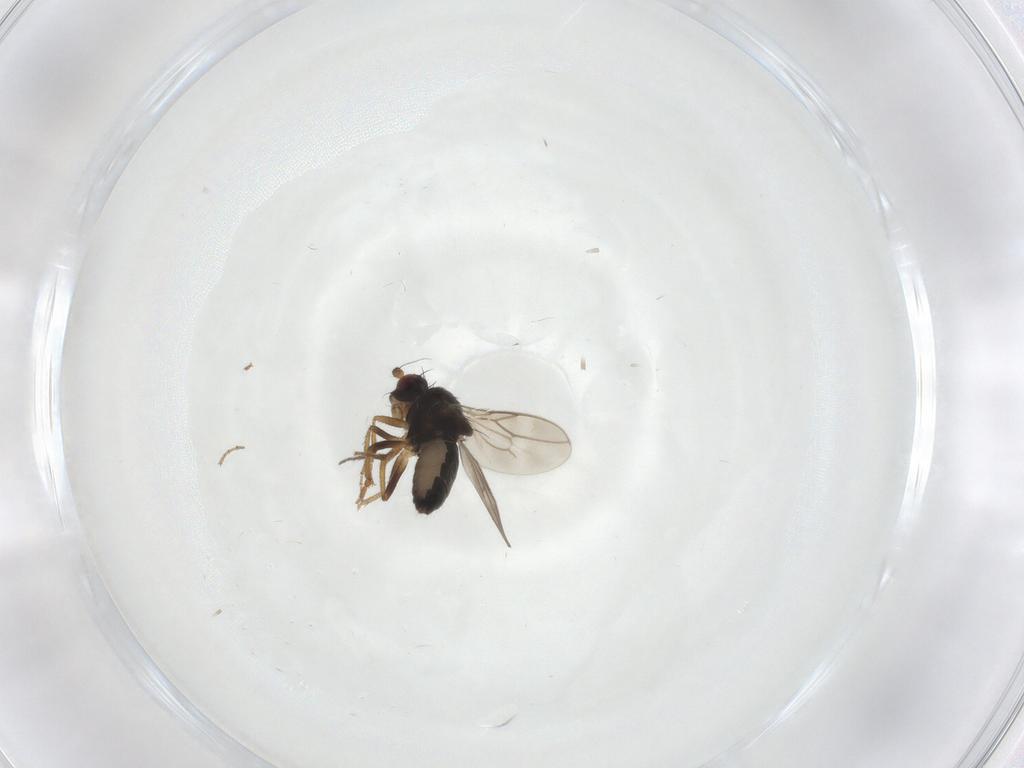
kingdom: Animalia
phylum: Arthropoda
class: Insecta
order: Diptera
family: Sphaeroceridae
